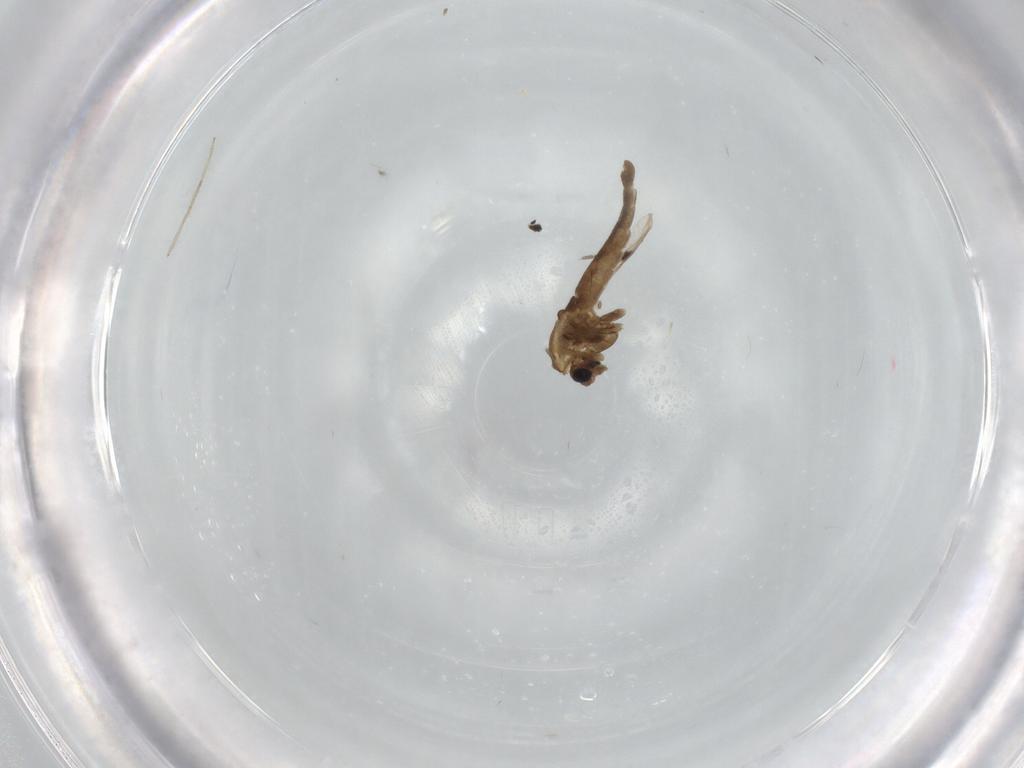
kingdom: Animalia
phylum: Arthropoda
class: Insecta
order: Diptera
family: Chironomidae
